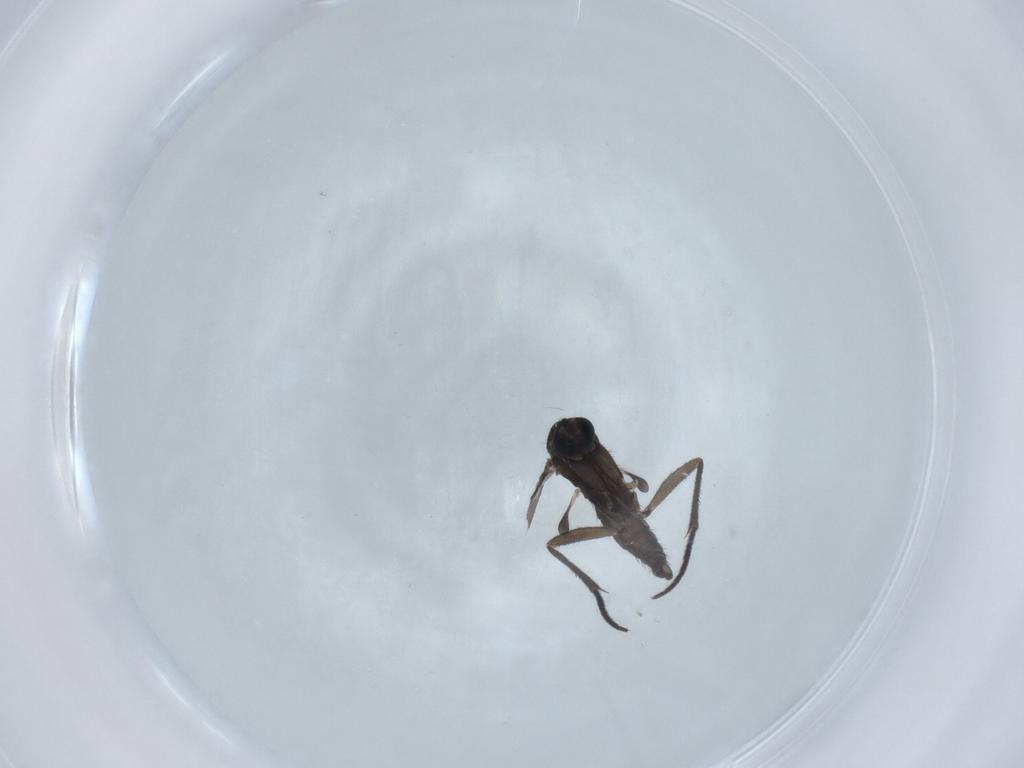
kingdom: Animalia
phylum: Arthropoda
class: Insecta
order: Diptera
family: Sciaridae
